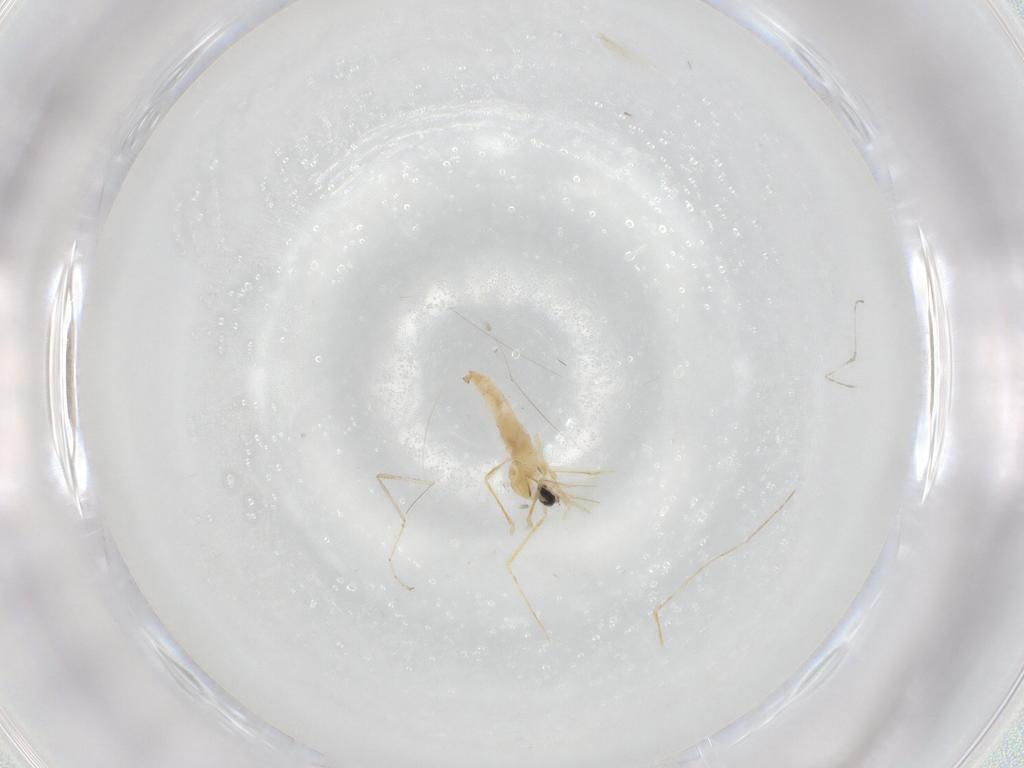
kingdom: Animalia
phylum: Arthropoda
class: Insecta
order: Diptera
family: Cecidomyiidae
